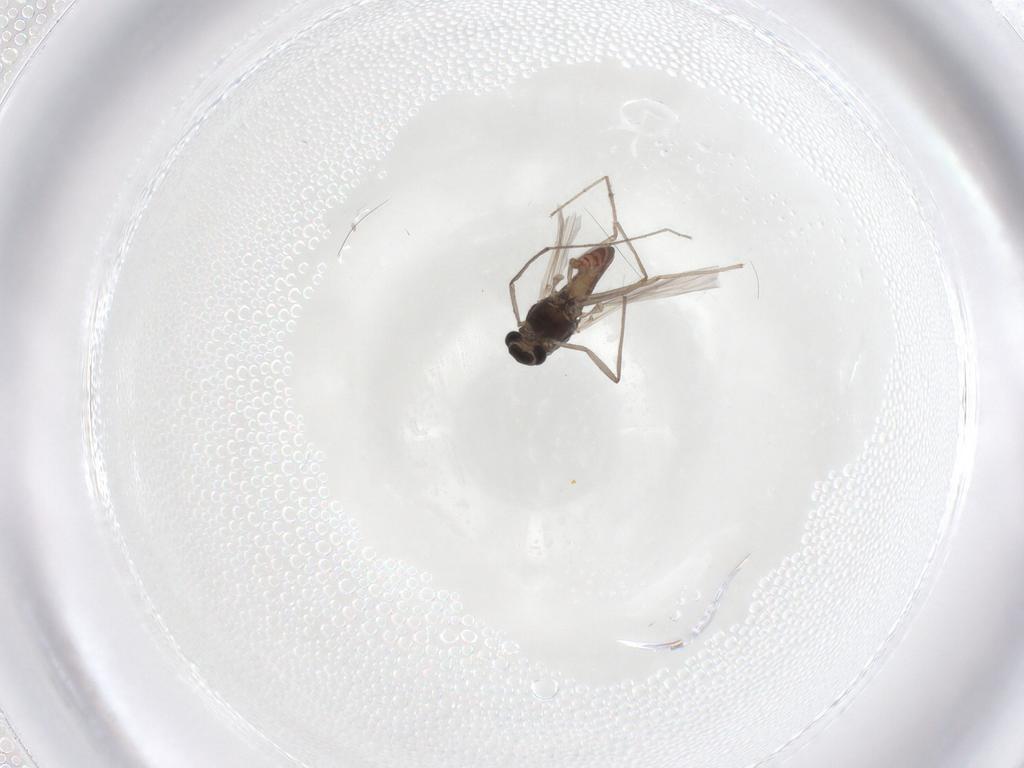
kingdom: Animalia
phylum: Arthropoda
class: Insecta
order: Diptera
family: Chironomidae
